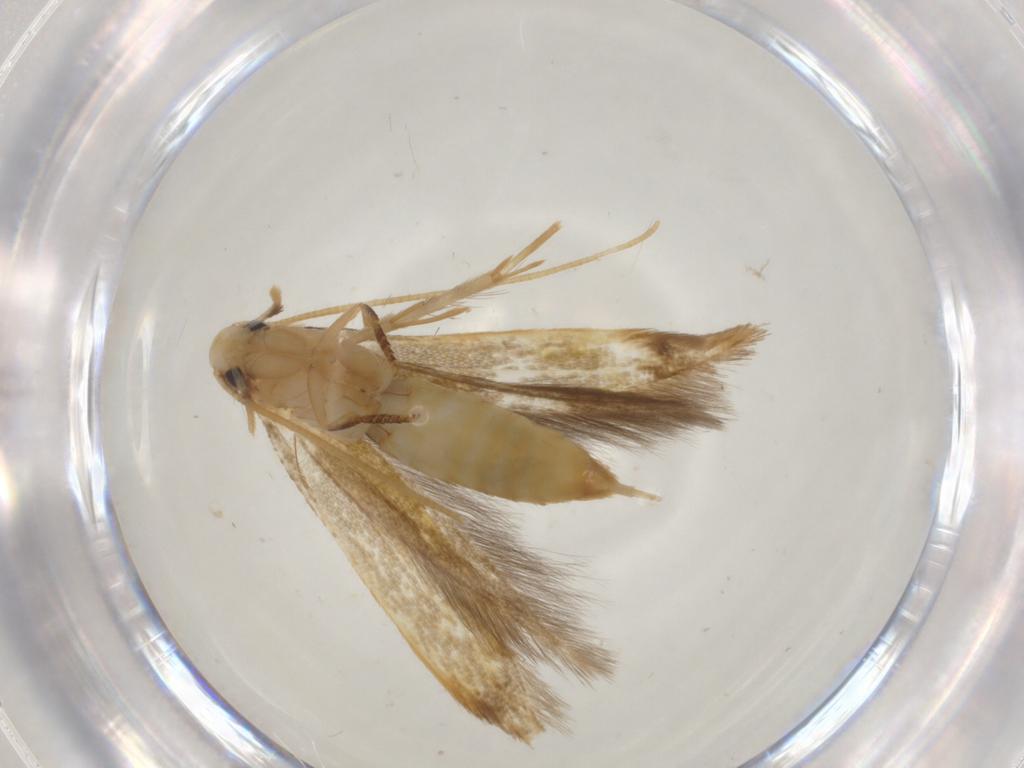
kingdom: Animalia
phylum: Arthropoda
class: Insecta
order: Lepidoptera
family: Tineidae
